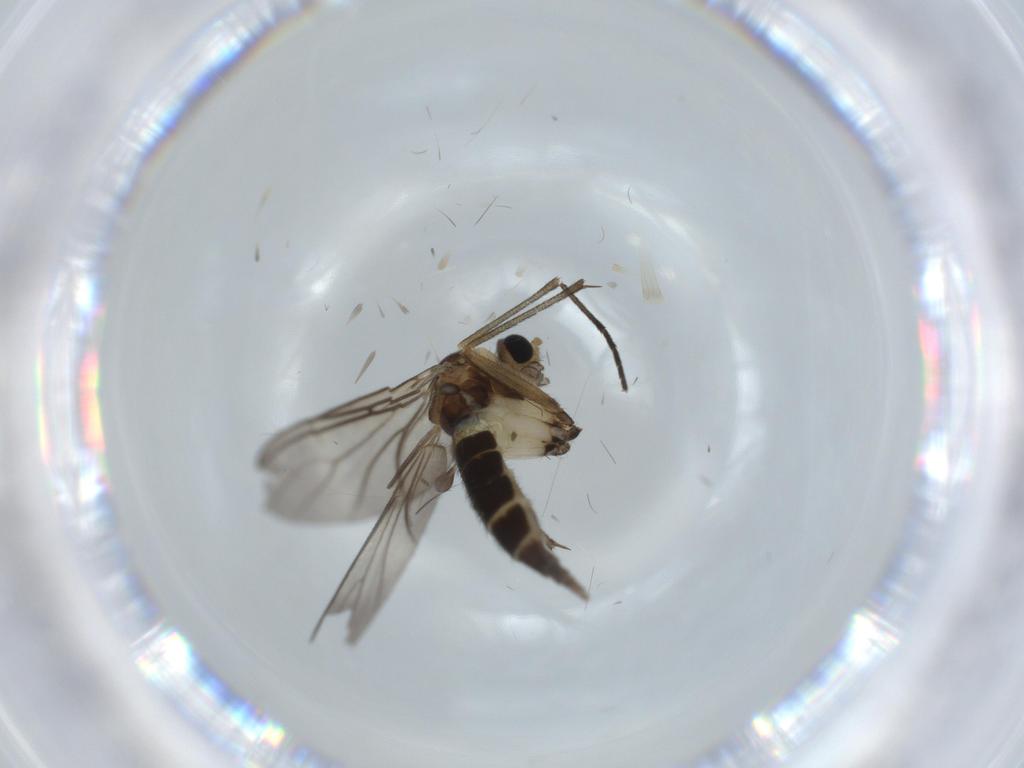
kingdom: Animalia
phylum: Arthropoda
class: Insecta
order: Diptera
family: Sciaridae
